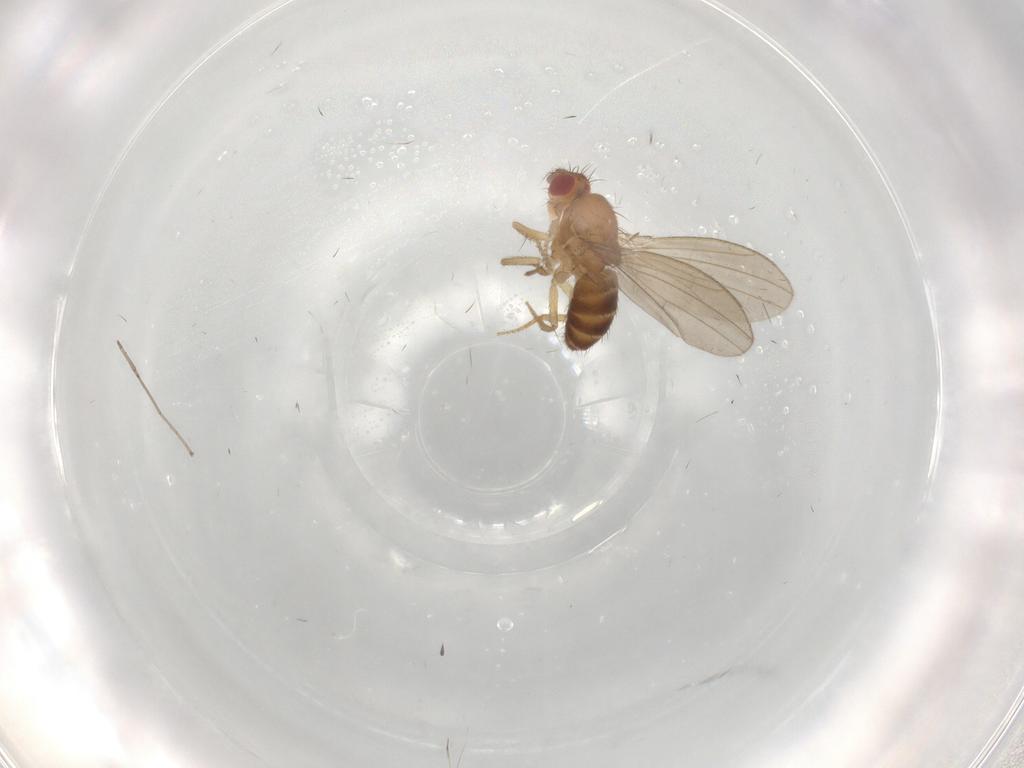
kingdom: Animalia
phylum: Arthropoda
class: Insecta
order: Diptera
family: Drosophilidae
